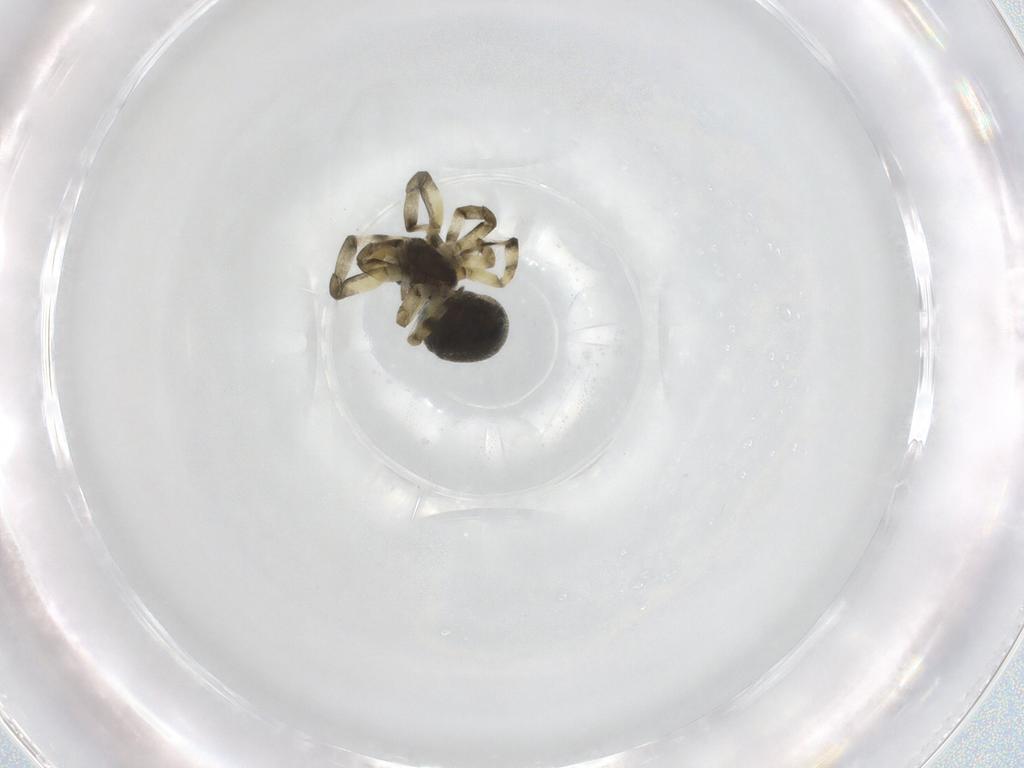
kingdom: Animalia
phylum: Arthropoda
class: Arachnida
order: Araneae
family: Theridiidae
